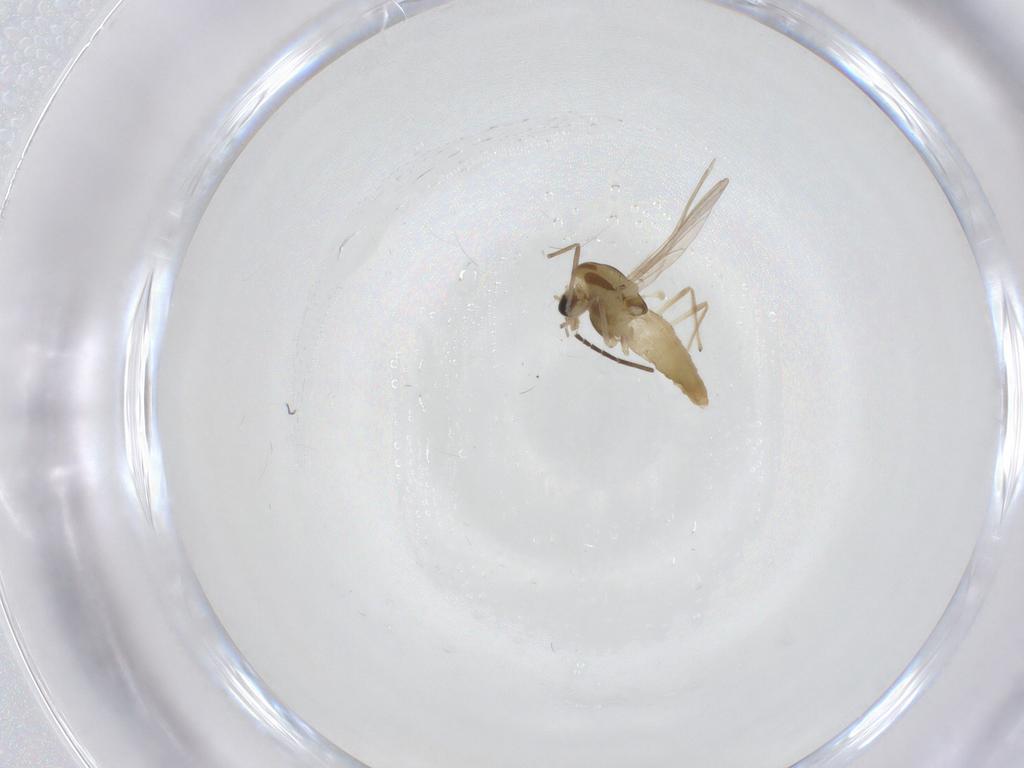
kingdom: Animalia
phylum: Arthropoda
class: Insecta
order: Diptera
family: Chironomidae
